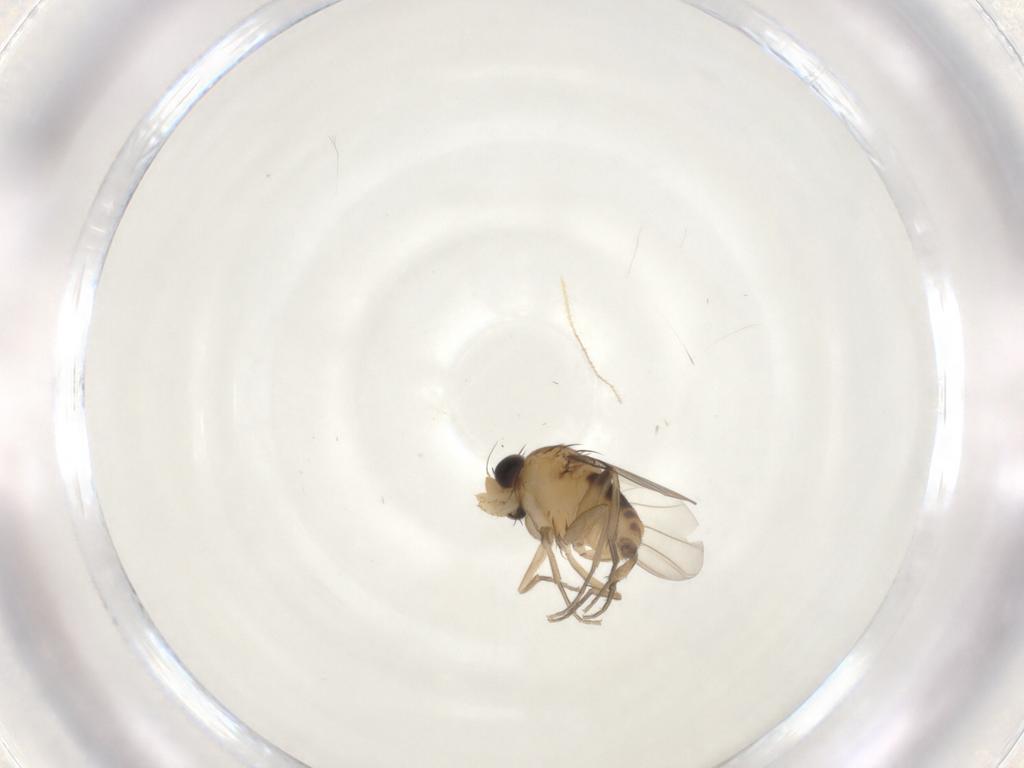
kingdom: Animalia
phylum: Arthropoda
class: Insecta
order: Diptera
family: Phoridae
